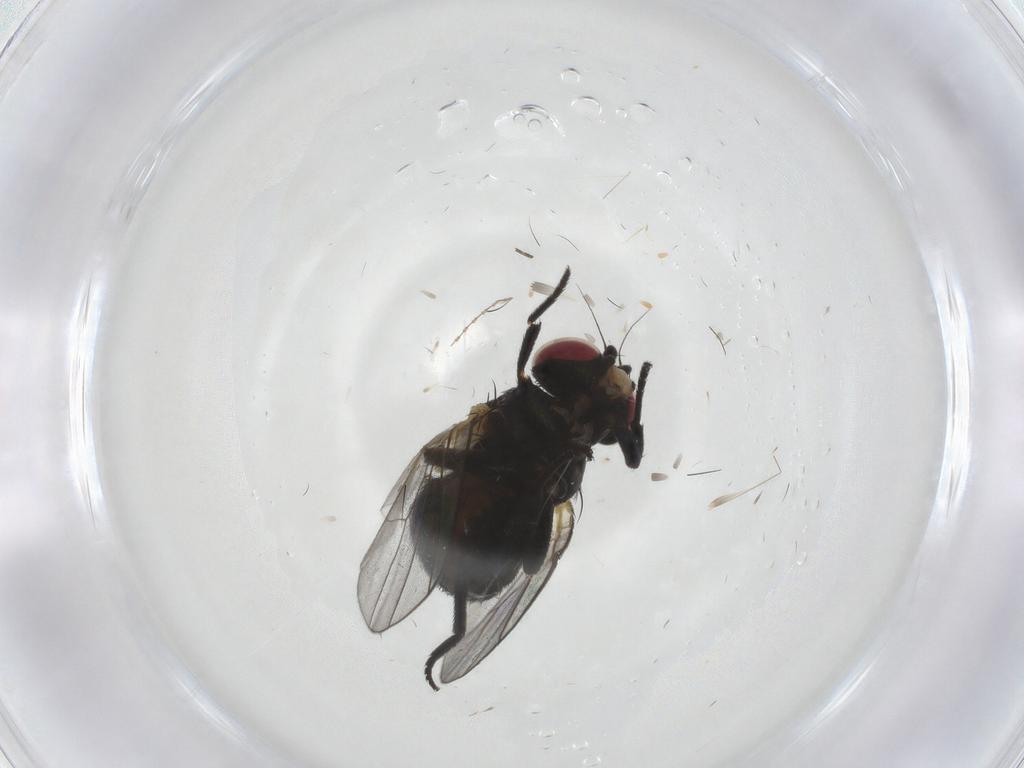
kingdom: Animalia
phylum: Arthropoda
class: Insecta
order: Diptera
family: Agromyzidae
